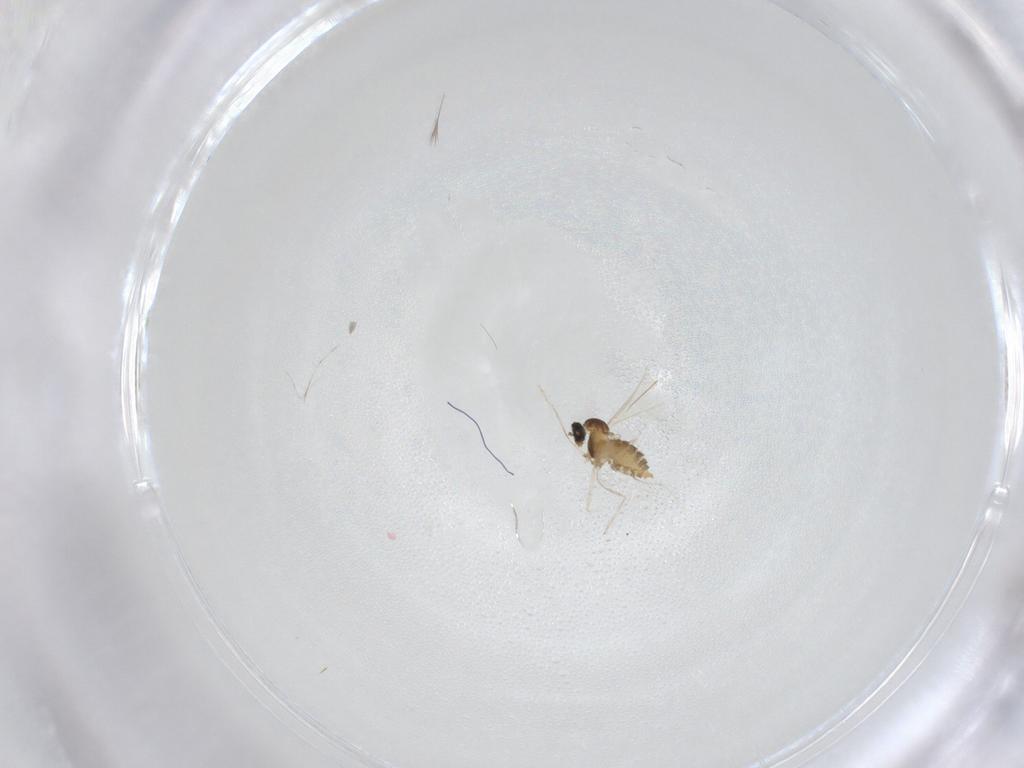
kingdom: Animalia
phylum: Arthropoda
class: Insecta
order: Diptera
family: Cecidomyiidae
